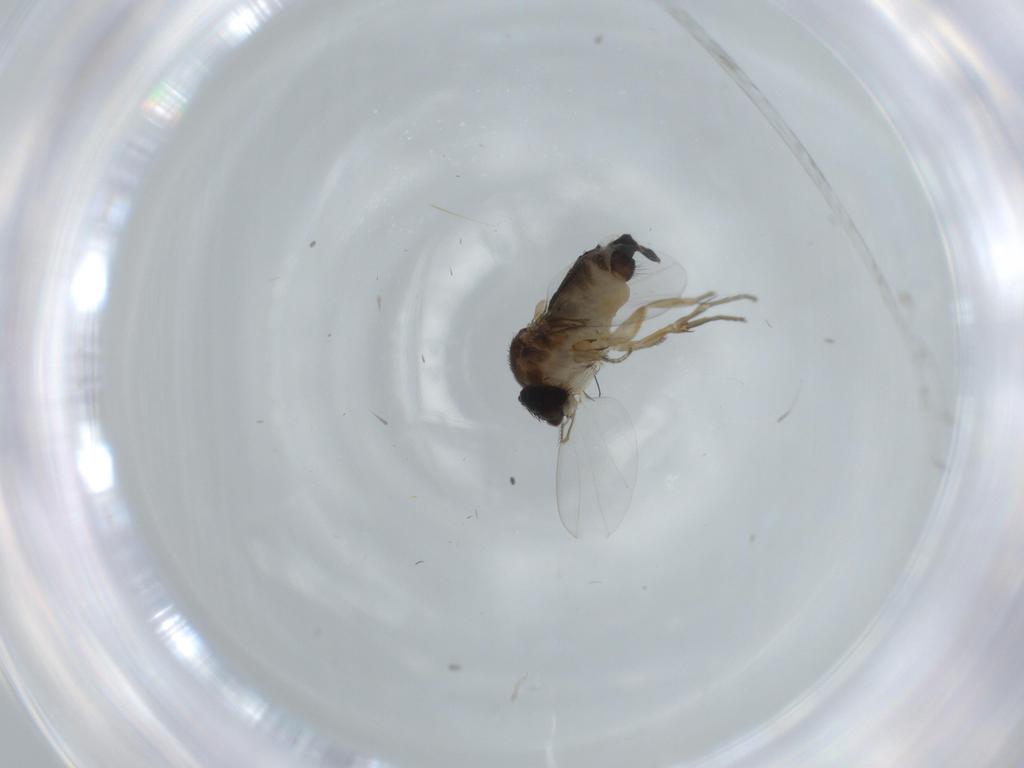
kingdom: Animalia
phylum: Arthropoda
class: Insecta
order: Diptera
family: Phoridae
